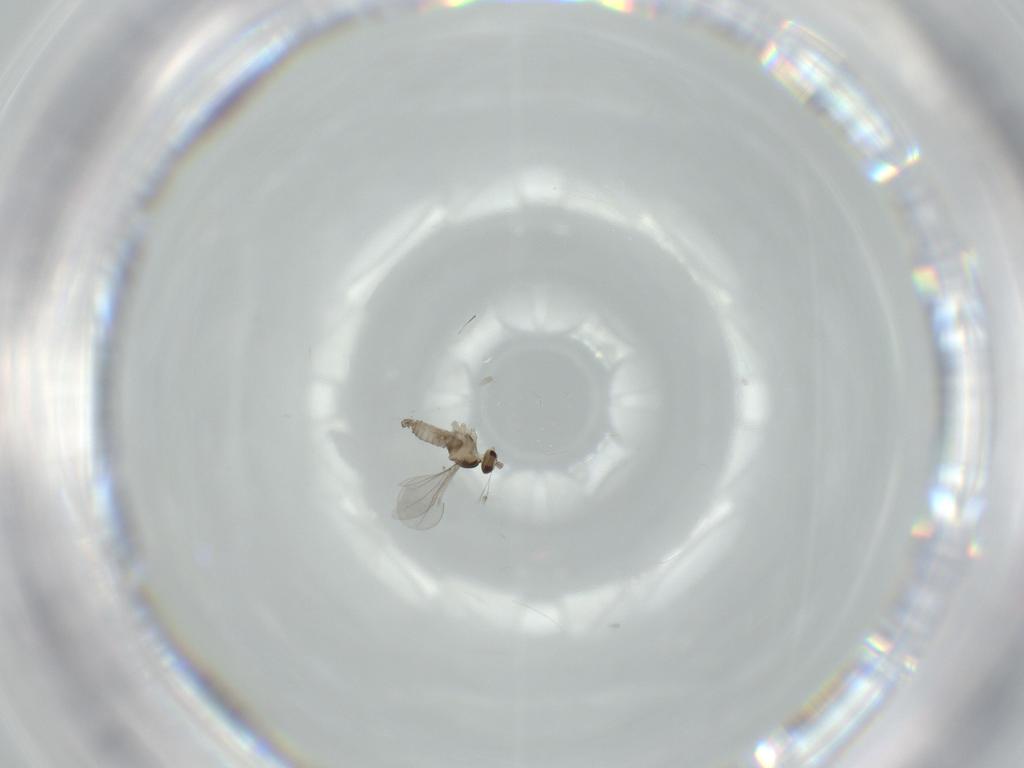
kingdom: Animalia
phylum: Arthropoda
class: Insecta
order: Diptera
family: Cecidomyiidae
